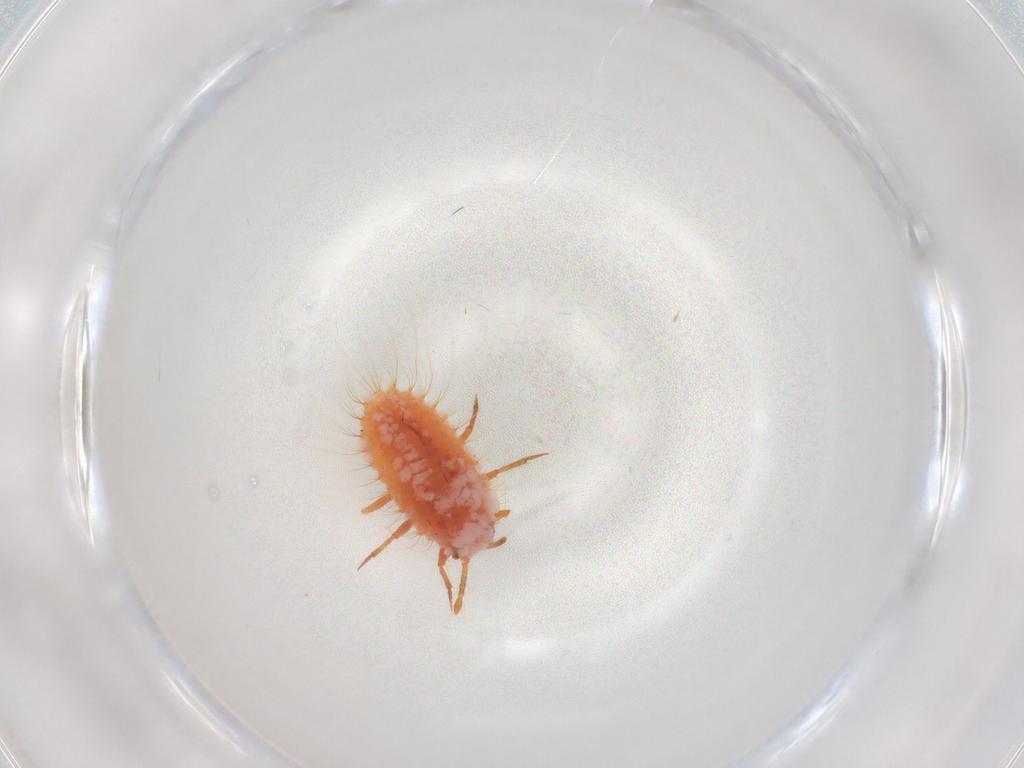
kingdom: Animalia
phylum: Arthropoda
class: Insecta
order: Hemiptera
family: Coccoidea_incertae_sedis
